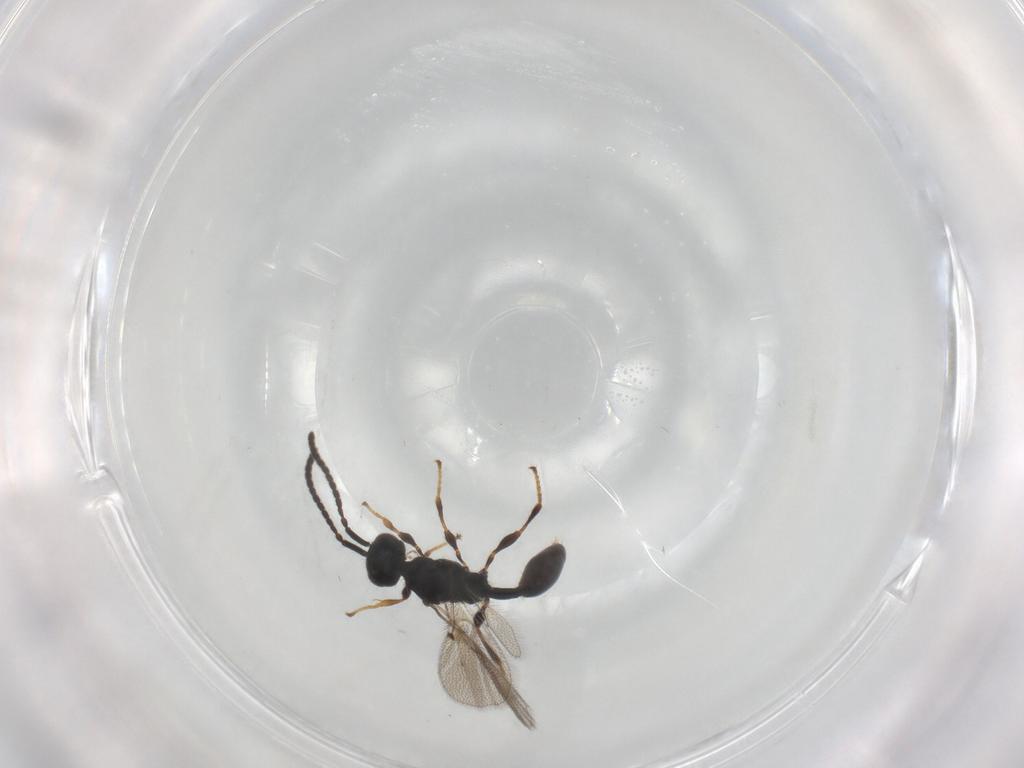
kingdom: Animalia
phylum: Arthropoda
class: Insecta
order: Hymenoptera
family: Diapriidae
